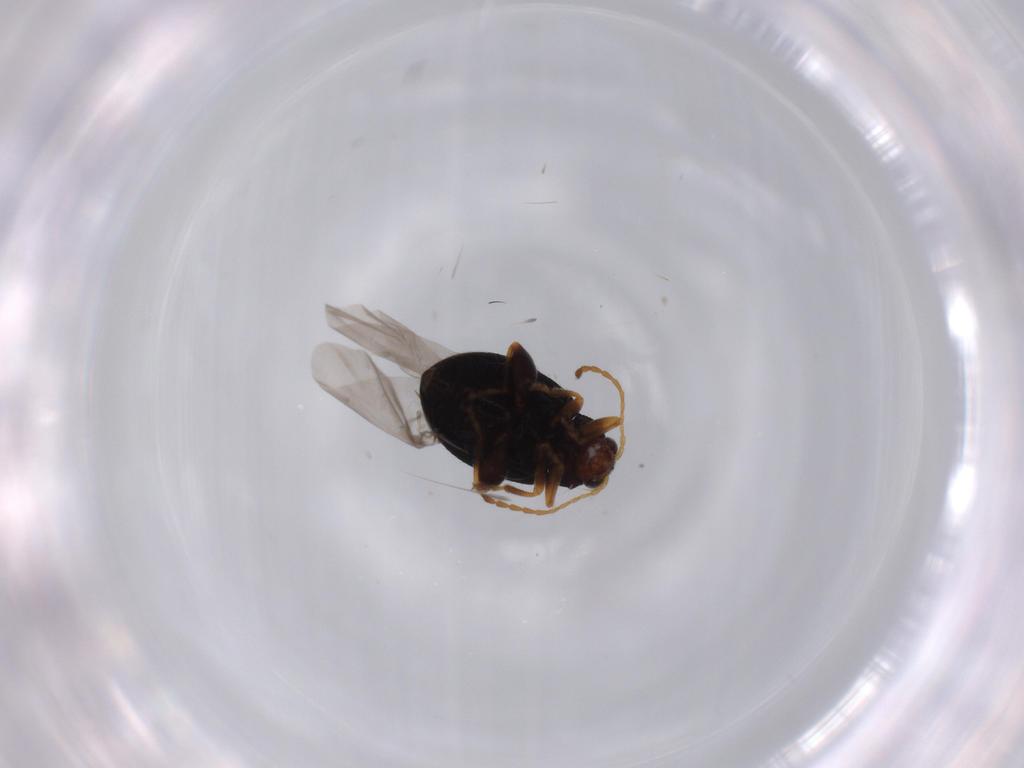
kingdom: Animalia
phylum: Arthropoda
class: Insecta
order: Coleoptera
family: Chrysomelidae
